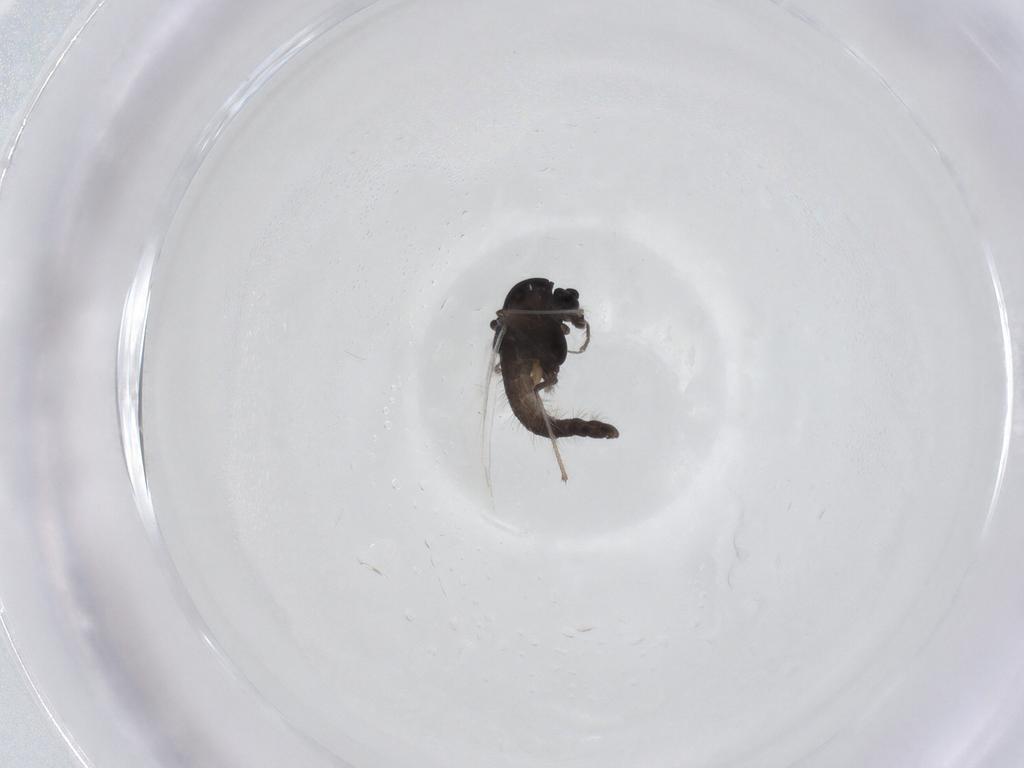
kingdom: Animalia
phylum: Arthropoda
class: Insecta
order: Diptera
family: Chironomidae
